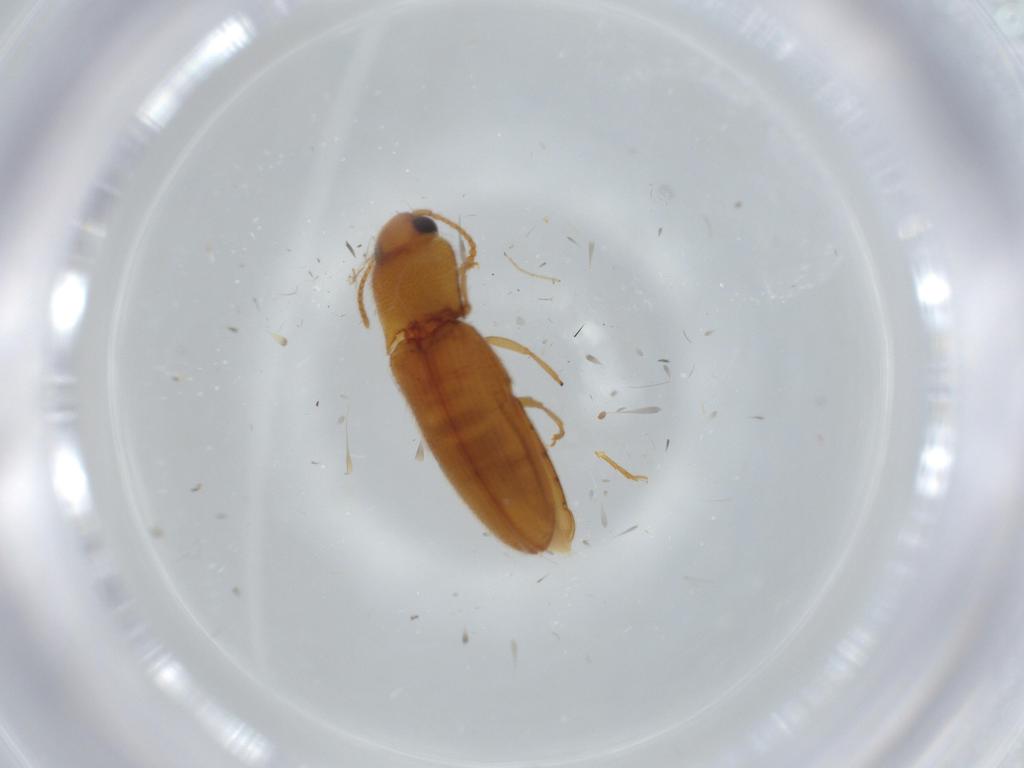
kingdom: Animalia
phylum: Arthropoda
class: Insecta
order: Coleoptera
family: Elateridae
